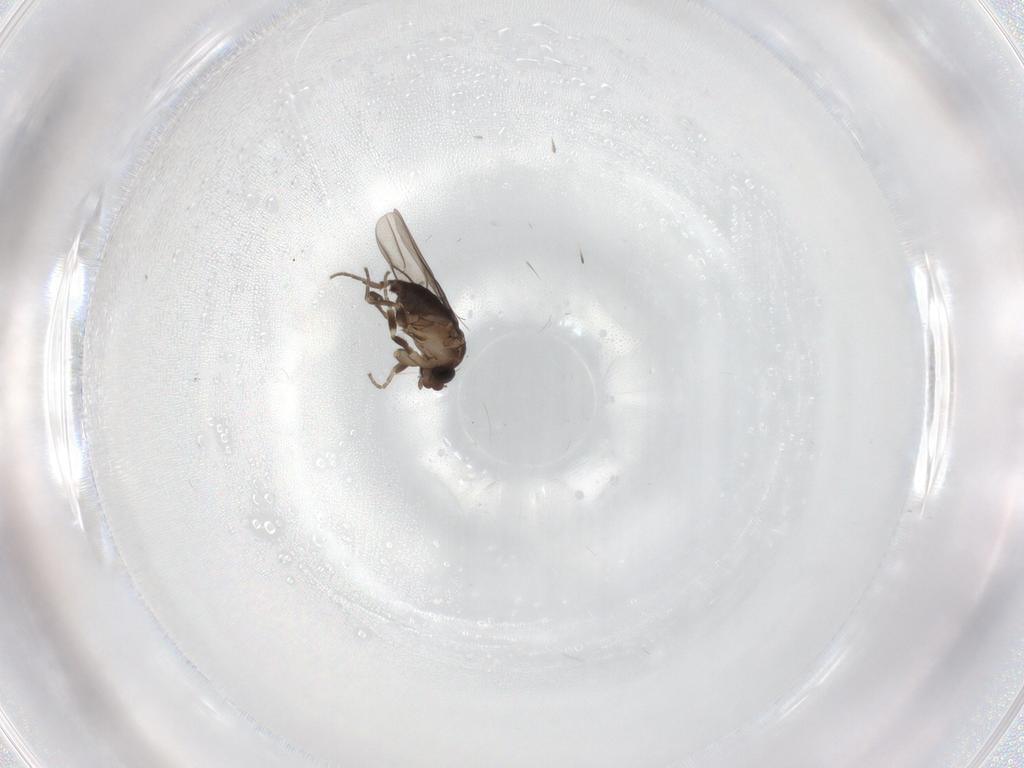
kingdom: Animalia
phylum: Arthropoda
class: Insecta
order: Diptera
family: Phoridae
